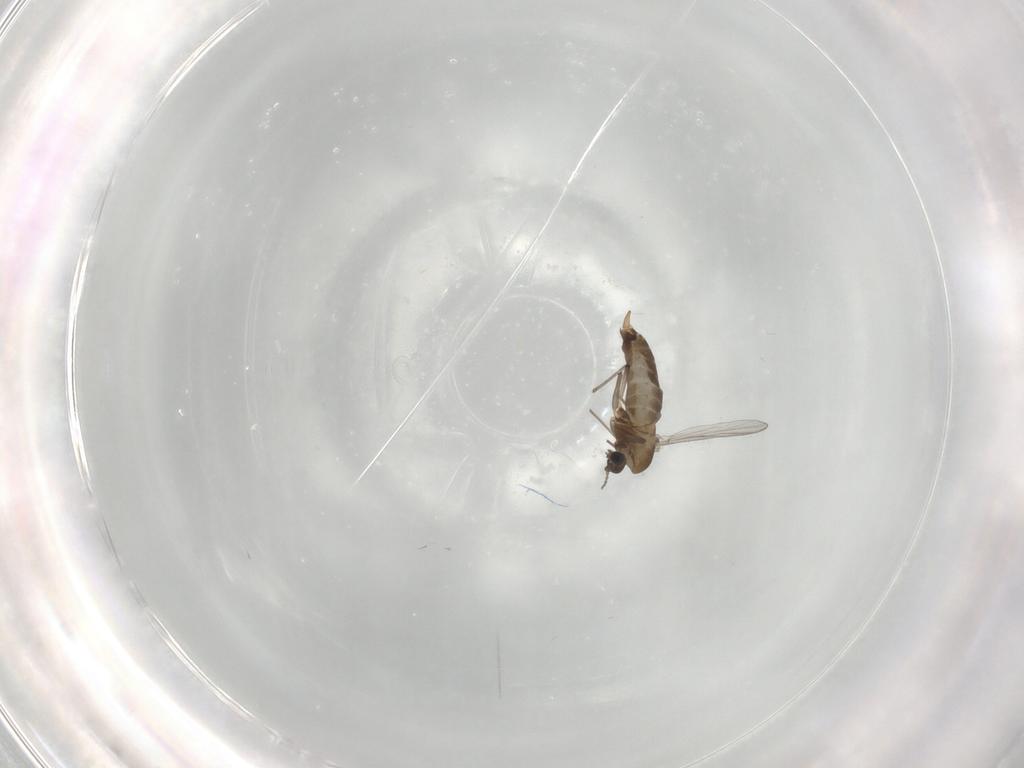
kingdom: Animalia
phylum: Arthropoda
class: Insecta
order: Diptera
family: Chironomidae
